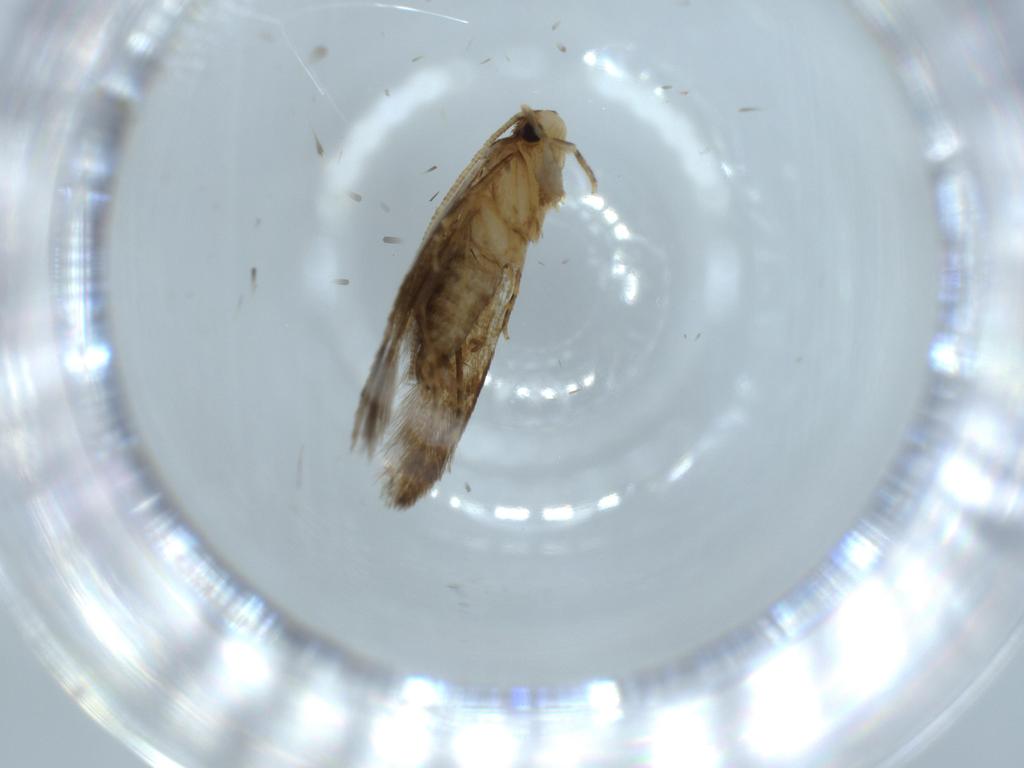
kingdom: Animalia
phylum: Arthropoda
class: Insecta
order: Lepidoptera
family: Tineidae
